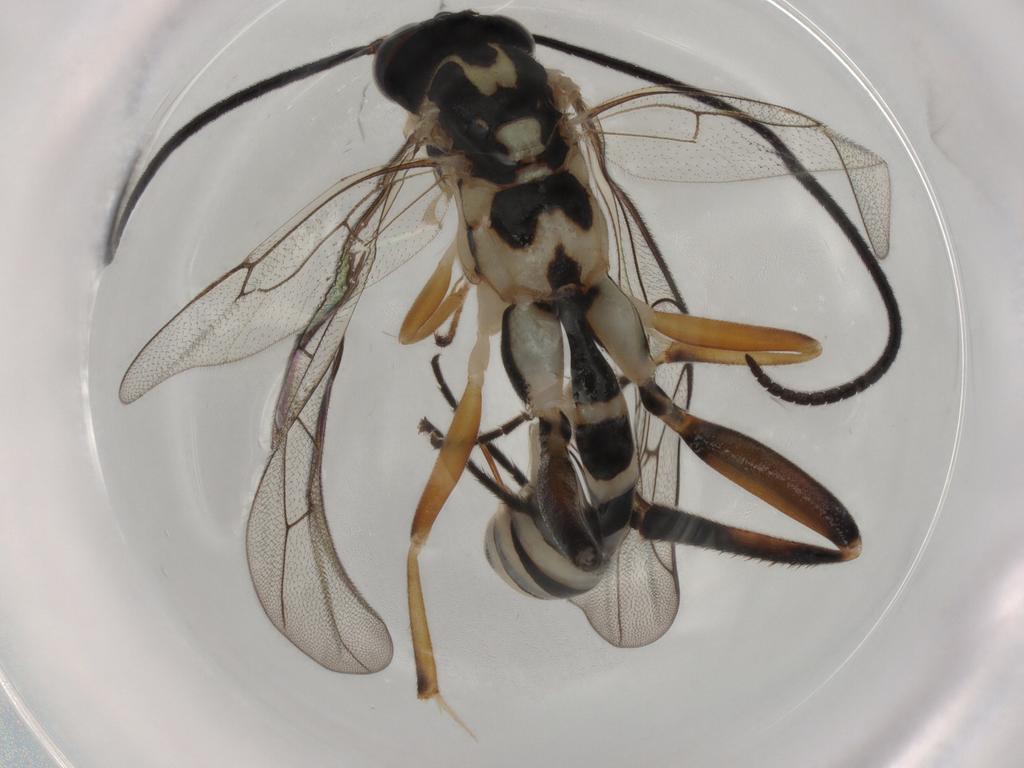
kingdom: Animalia
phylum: Arthropoda
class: Insecta
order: Hymenoptera
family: Ichneumonidae
